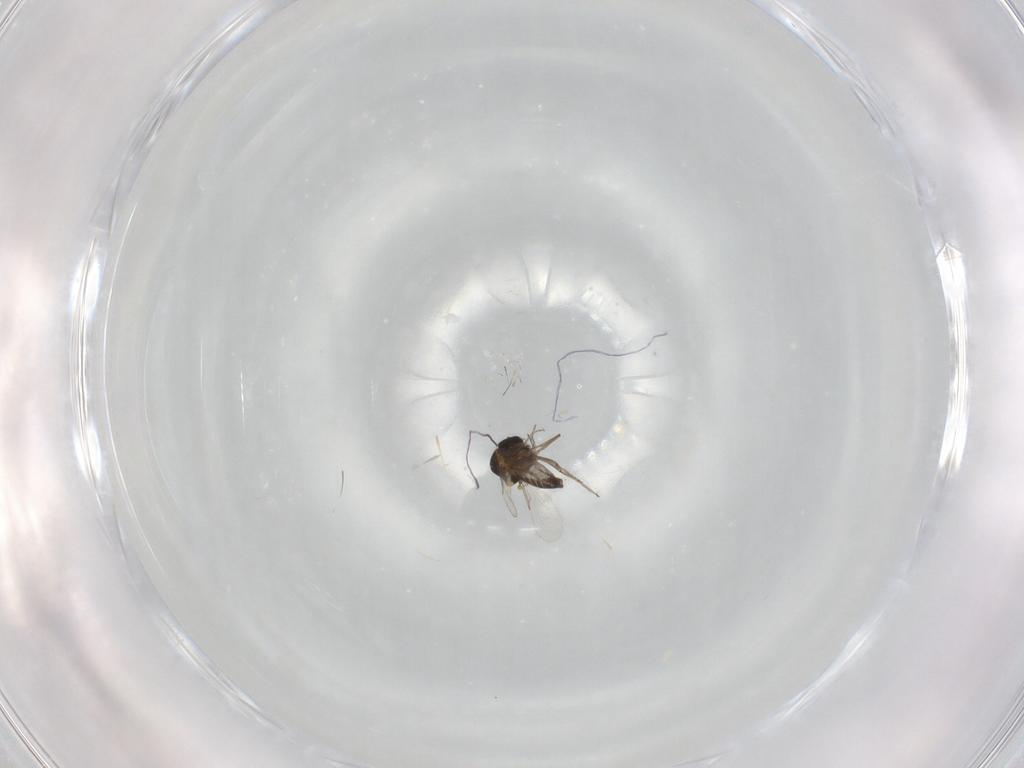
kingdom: Animalia
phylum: Arthropoda
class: Insecta
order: Diptera
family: Ceratopogonidae
